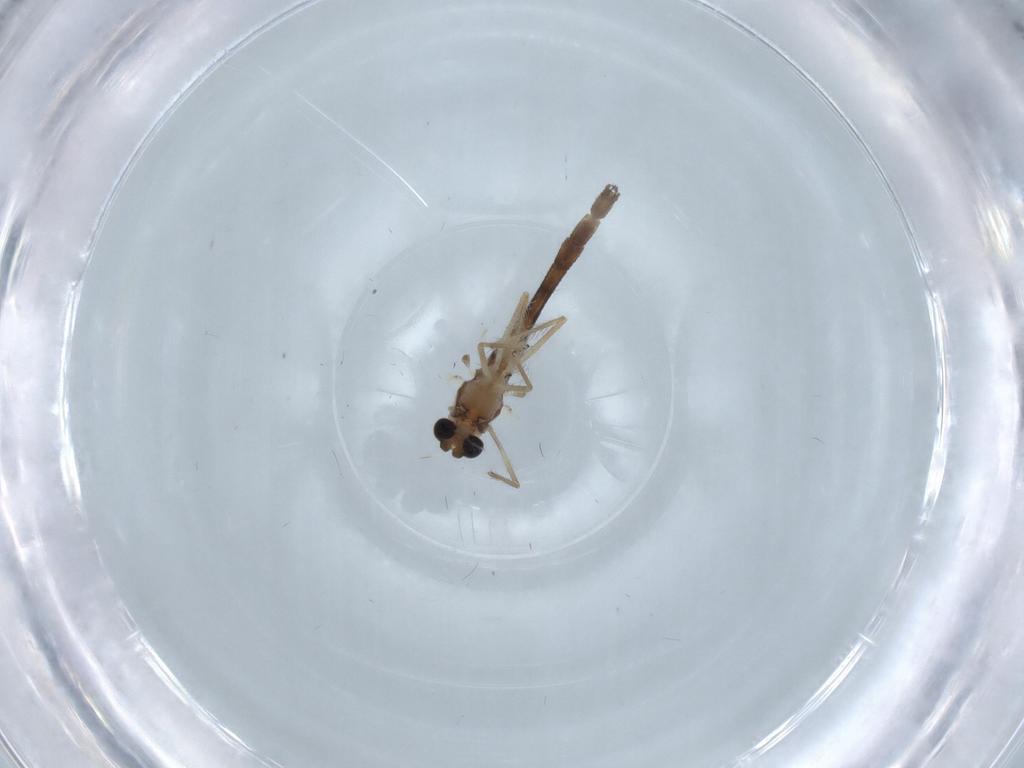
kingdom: Animalia
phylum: Arthropoda
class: Insecta
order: Diptera
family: Chironomidae
